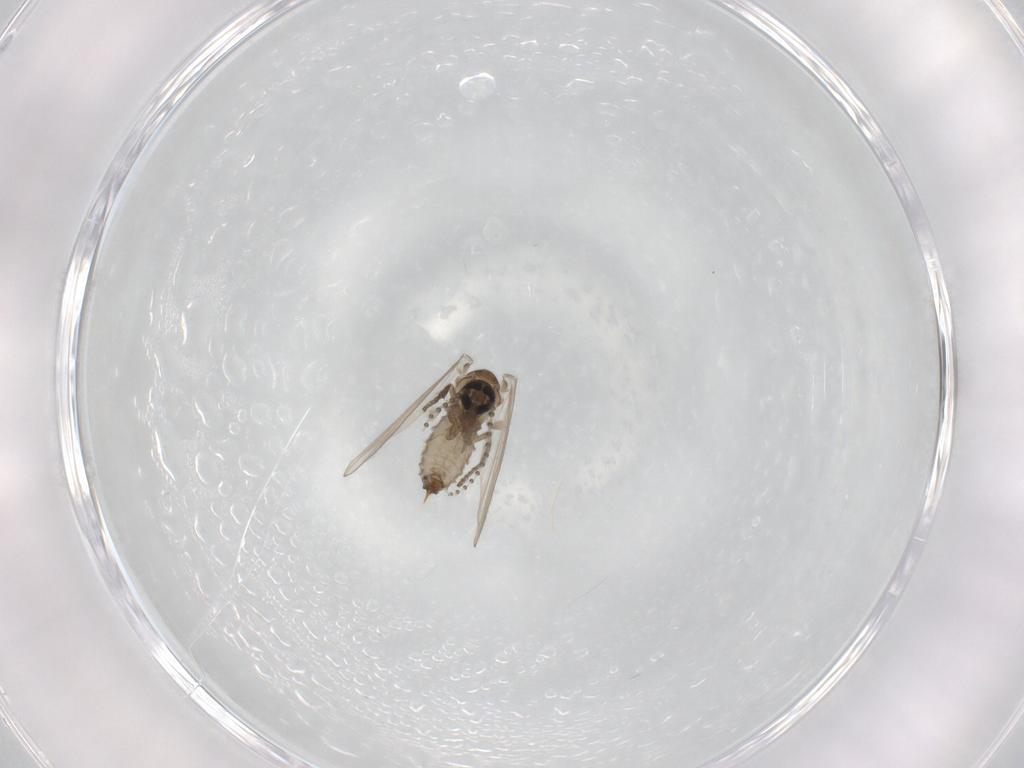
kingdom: Animalia
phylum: Arthropoda
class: Insecta
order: Diptera
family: Psychodidae
